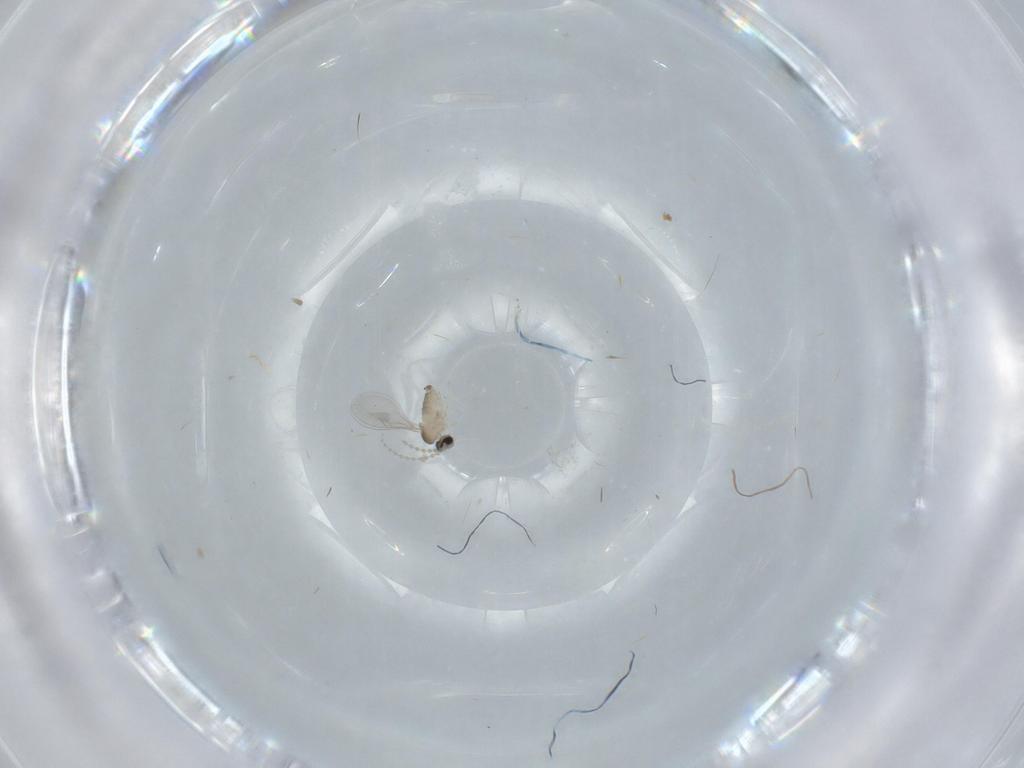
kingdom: Animalia
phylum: Arthropoda
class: Insecta
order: Diptera
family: Cecidomyiidae
